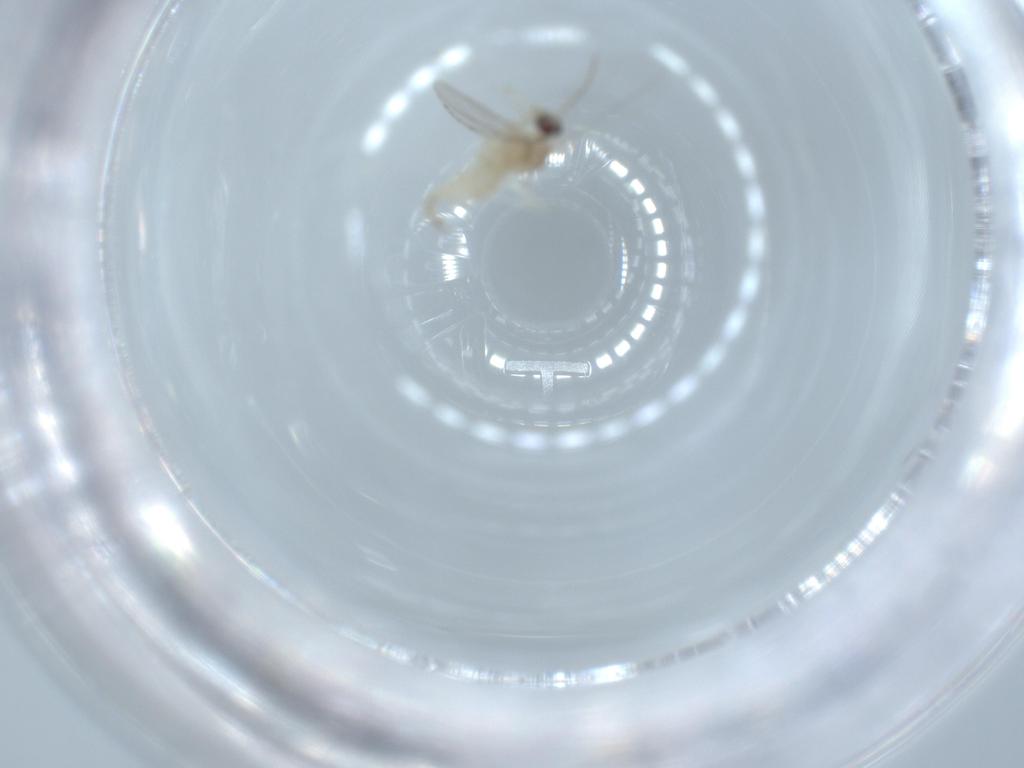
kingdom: Animalia
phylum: Arthropoda
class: Insecta
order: Diptera
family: Cecidomyiidae
